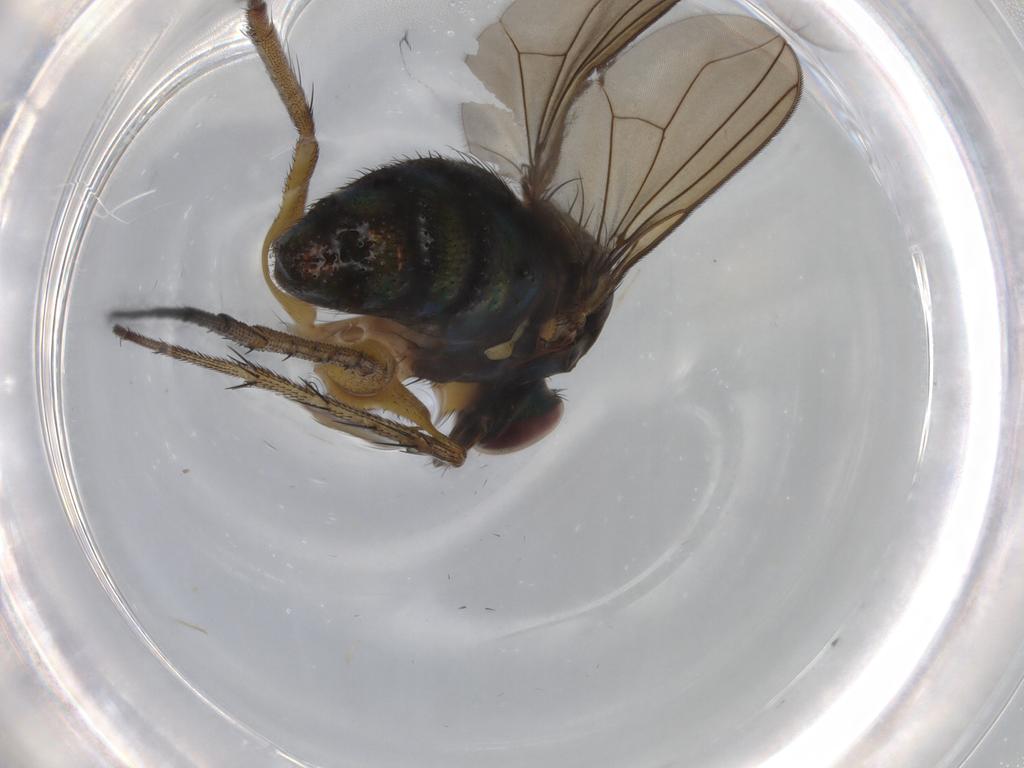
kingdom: Animalia
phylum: Arthropoda
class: Insecta
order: Diptera
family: Dolichopodidae
